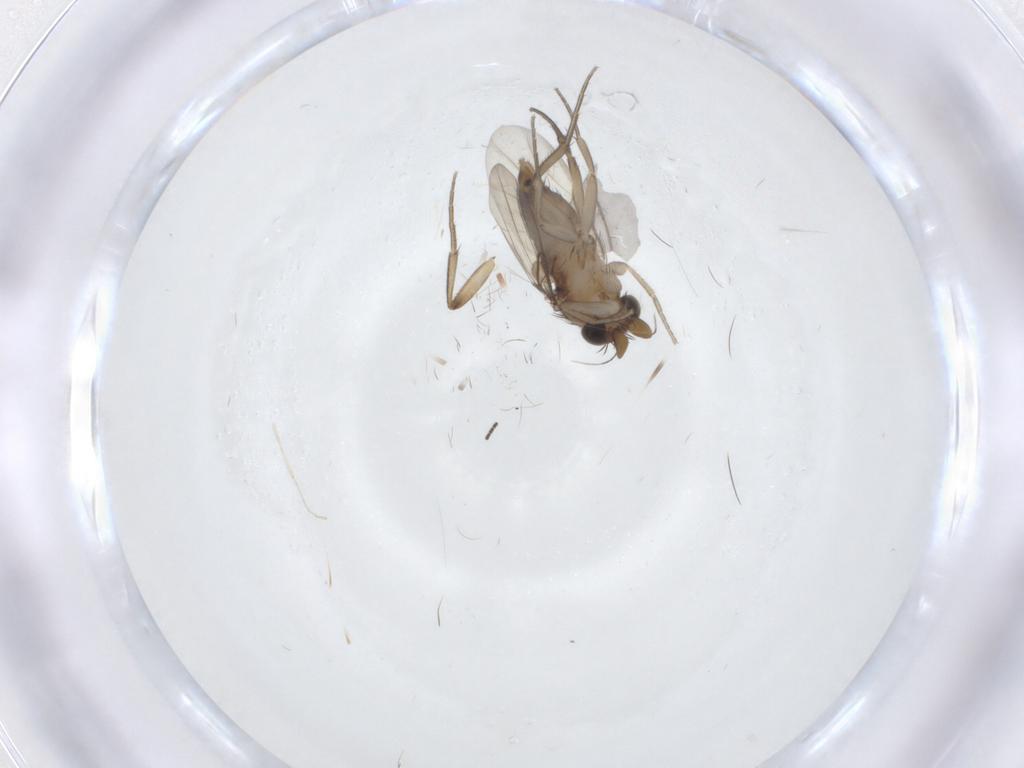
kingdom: Animalia
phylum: Arthropoda
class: Insecta
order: Diptera
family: Phoridae
